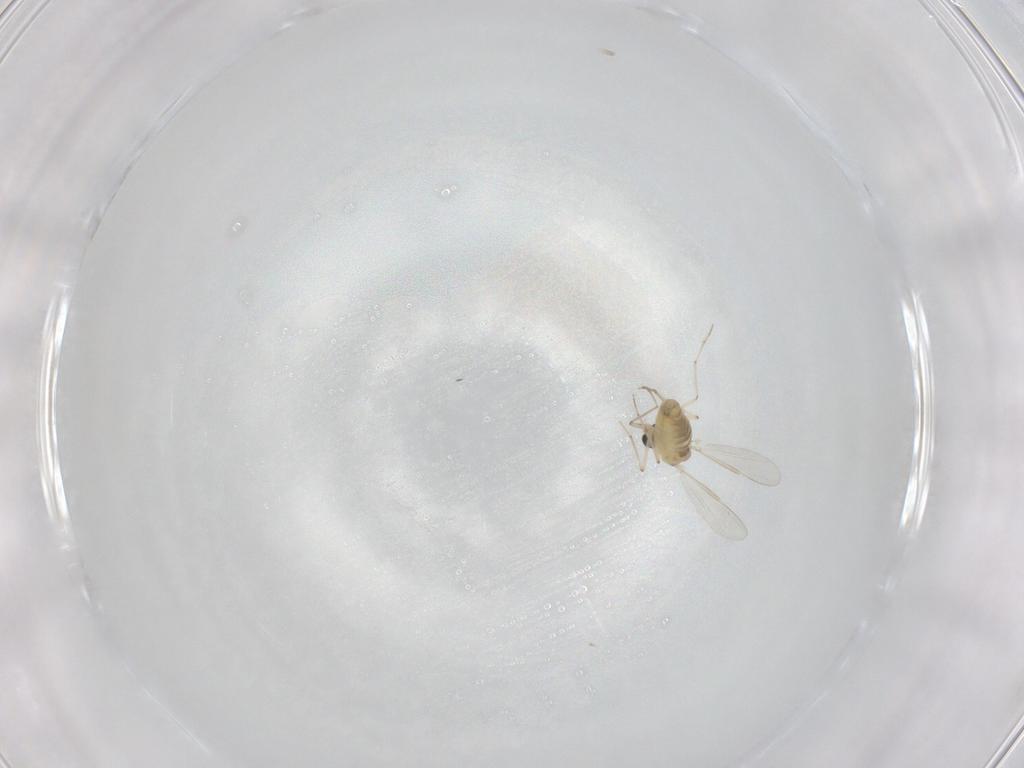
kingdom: Animalia
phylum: Arthropoda
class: Insecta
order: Diptera
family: Chironomidae
